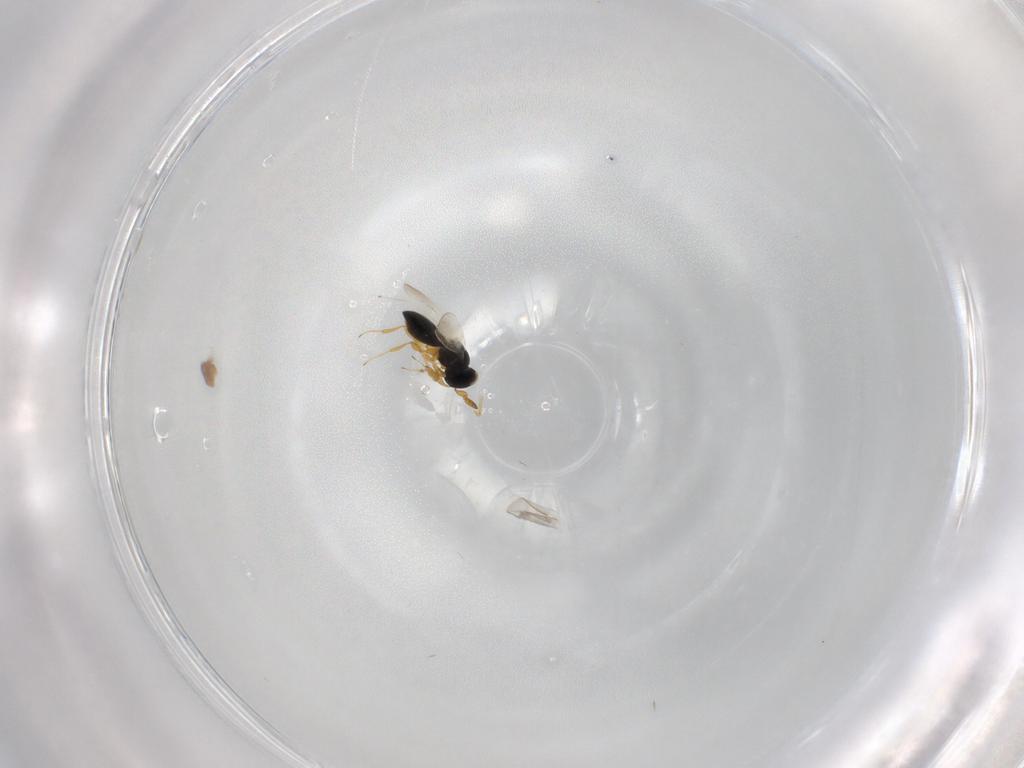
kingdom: Animalia
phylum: Arthropoda
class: Insecta
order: Hymenoptera
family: Platygastridae
